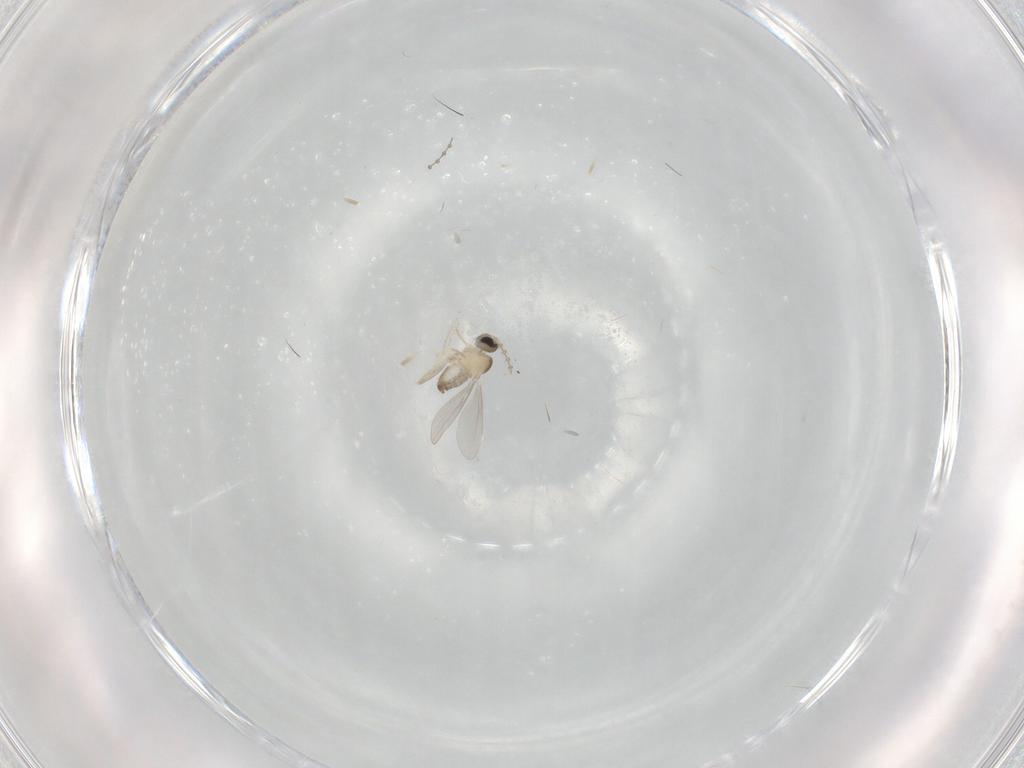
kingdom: Animalia
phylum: Arthropoda
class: Insecta
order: Diptera
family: Cecidomyiidae
